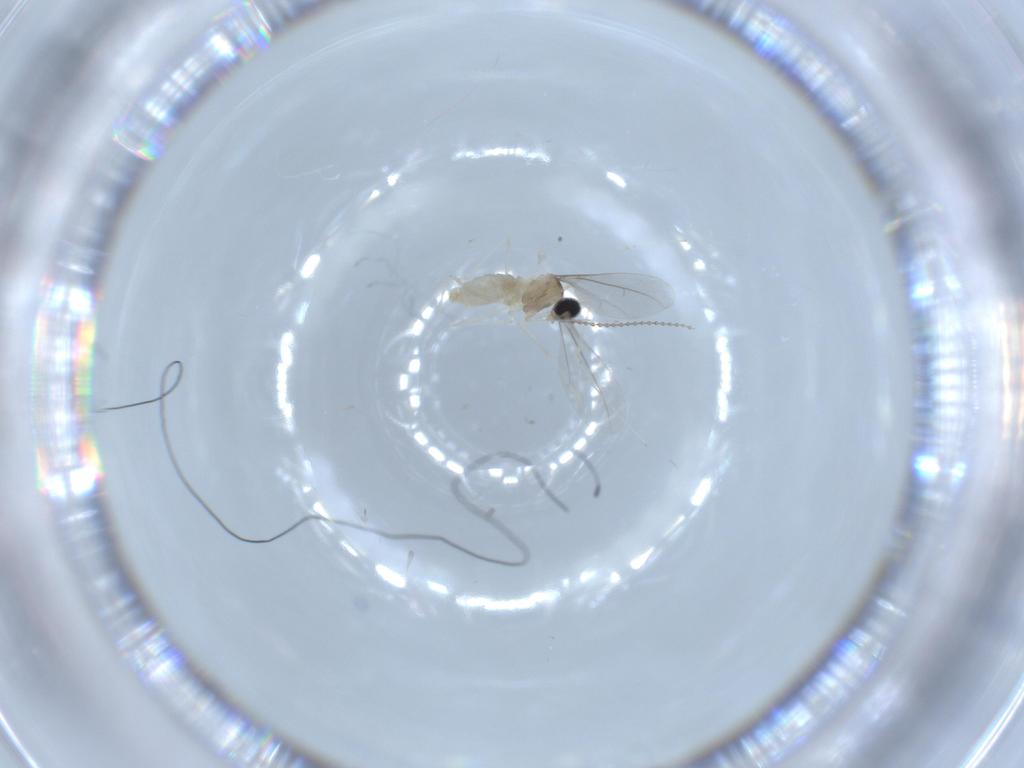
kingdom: Animalia
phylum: Arthropoda
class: Insecta
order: Diptera
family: Cecidomyiidae
